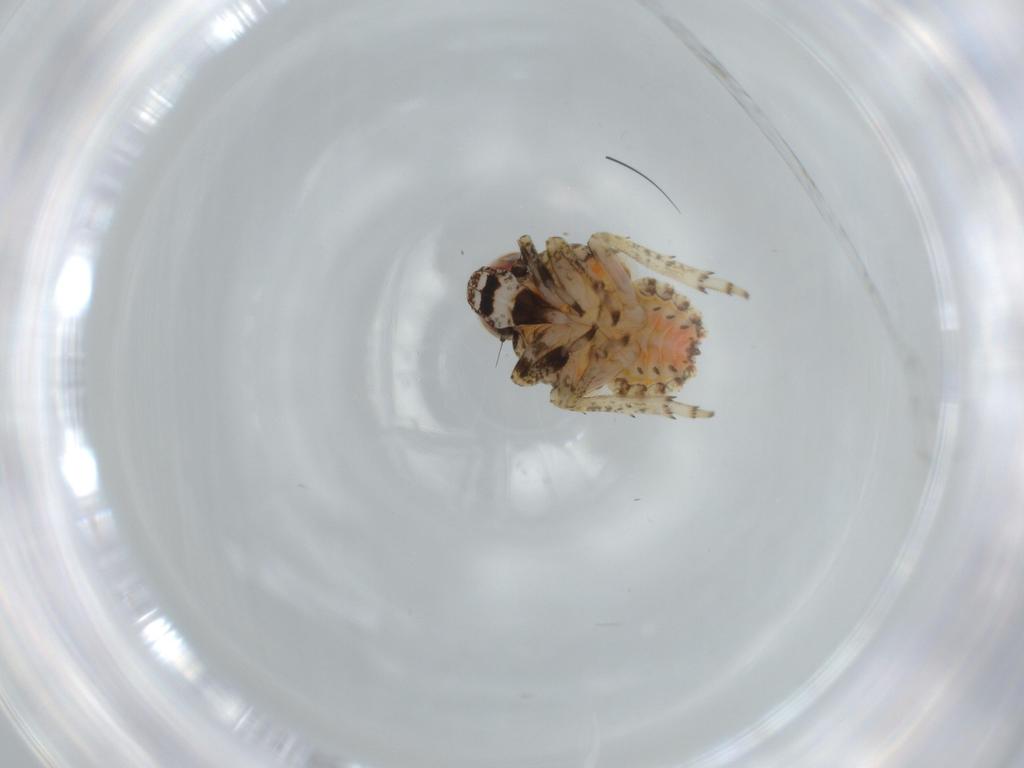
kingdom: Animalia
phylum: Arthropoda
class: Insecta
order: Hemiptera
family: Issidae
